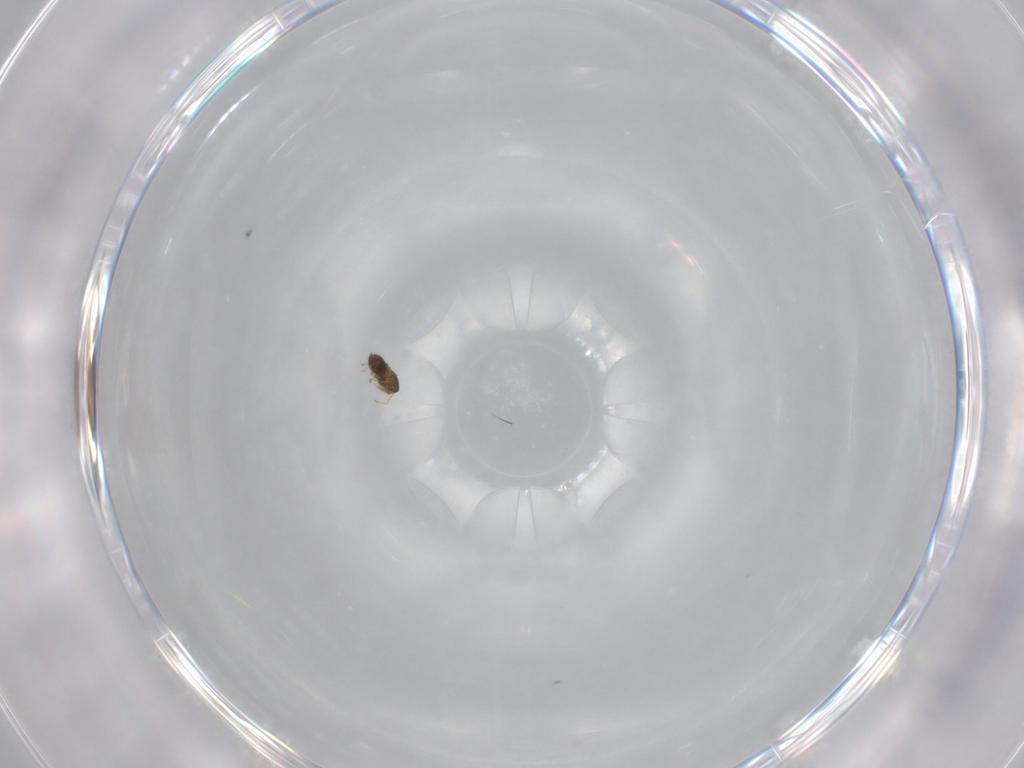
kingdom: Animalia
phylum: Arthropoda
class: Insecta
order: Hymenoptera
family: Trichogrammatidae
